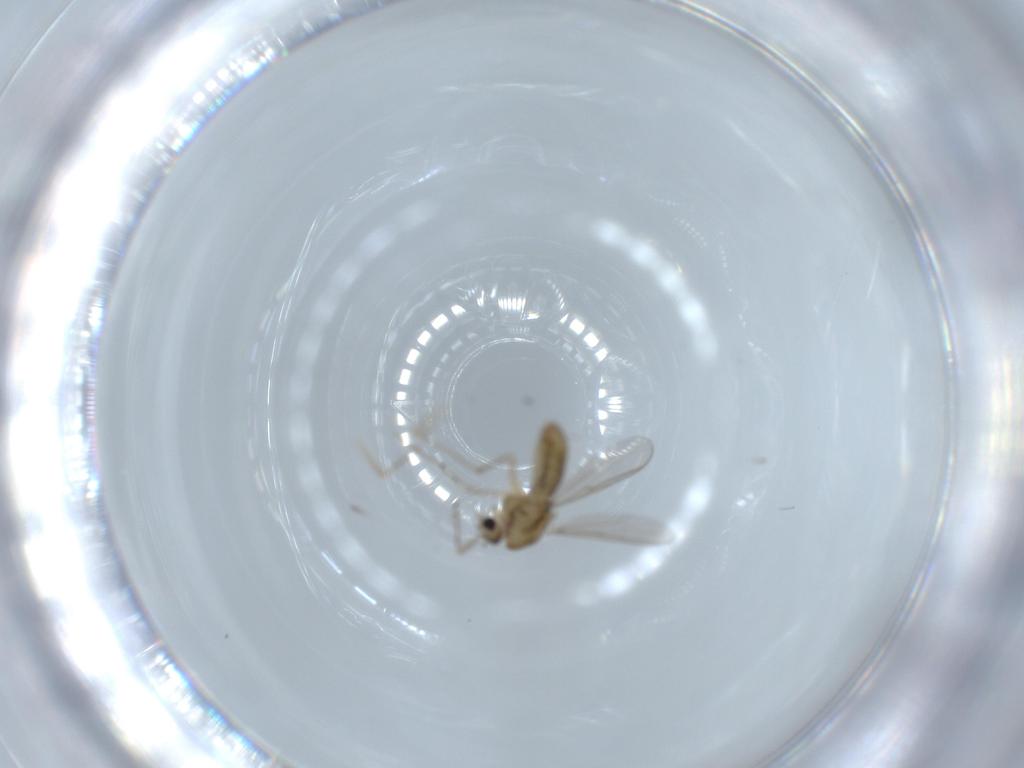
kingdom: Animalia
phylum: Arthropoda
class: Insecta
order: Diptera
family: Chironomidae
